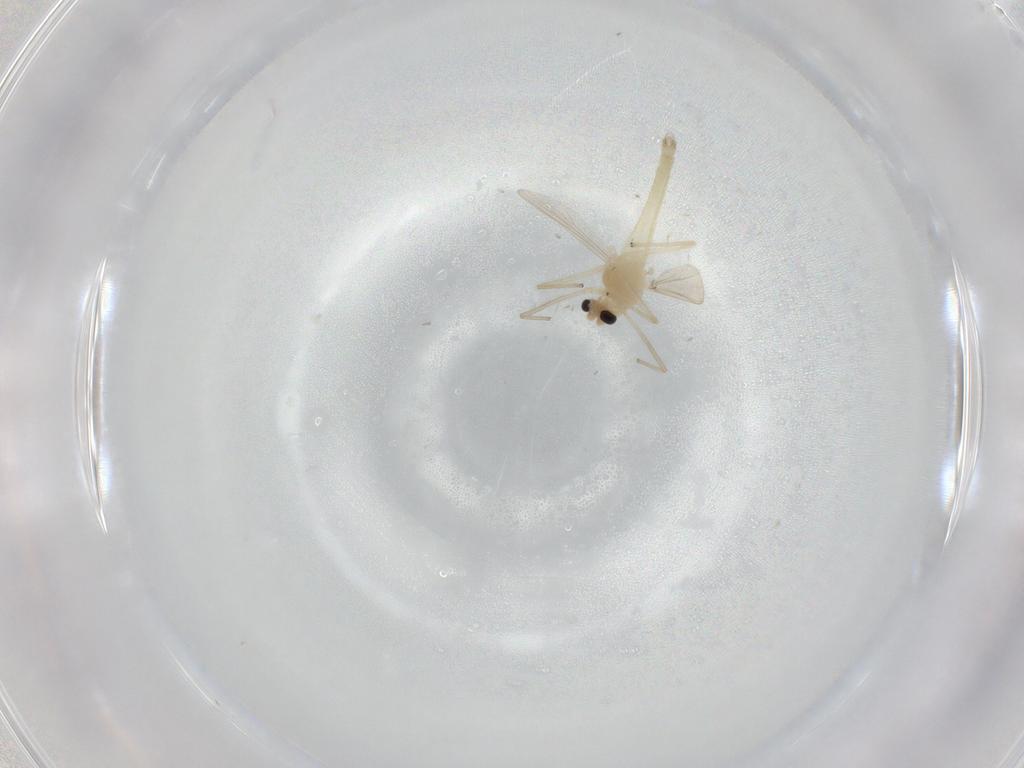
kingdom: Animalia
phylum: Arthropoda
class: Insecta
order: Diptera
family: Chironomidae
